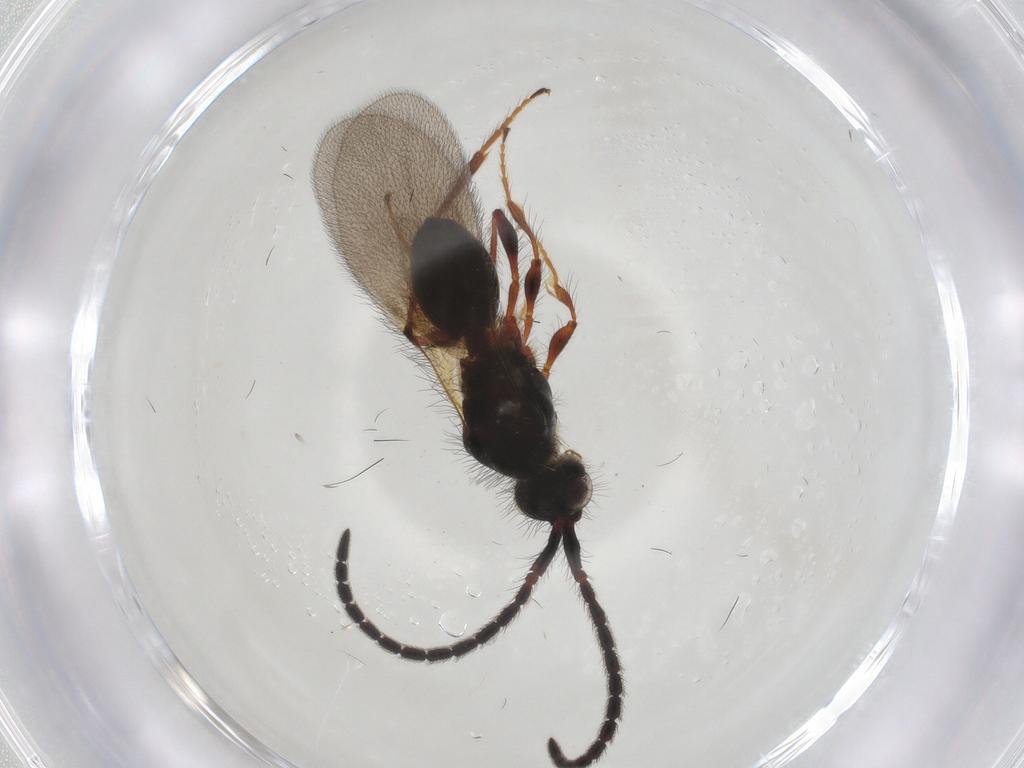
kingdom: Animalia
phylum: Arthropoda
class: Insecta
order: Hymenoptera
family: Diapriidae
